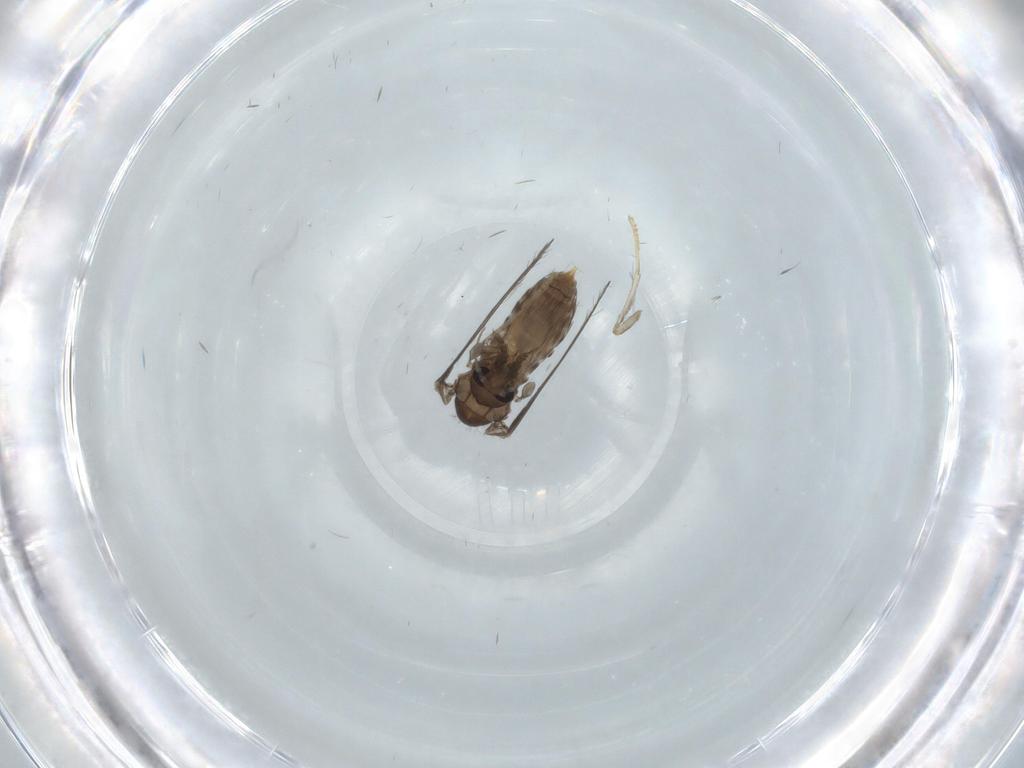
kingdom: Animalia
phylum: Arthropoda
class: Insecta
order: Diptera
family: Psychodidae
